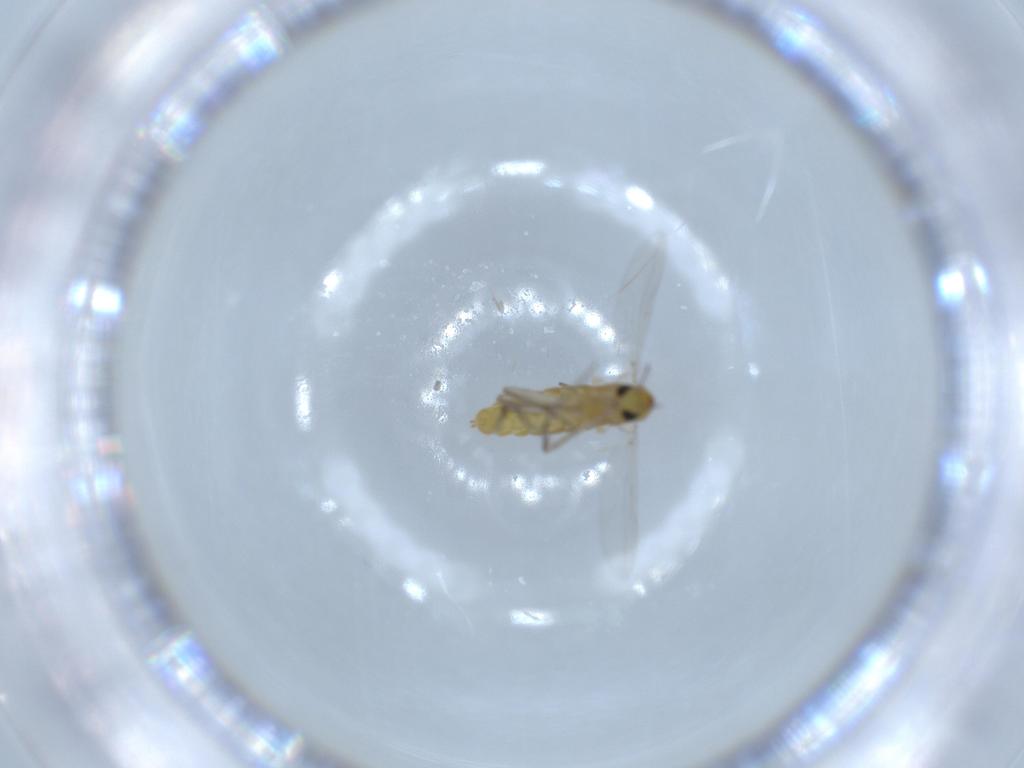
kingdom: Animalia
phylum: Arthropoda
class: Insecta
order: Diptera
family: Chironomidae
